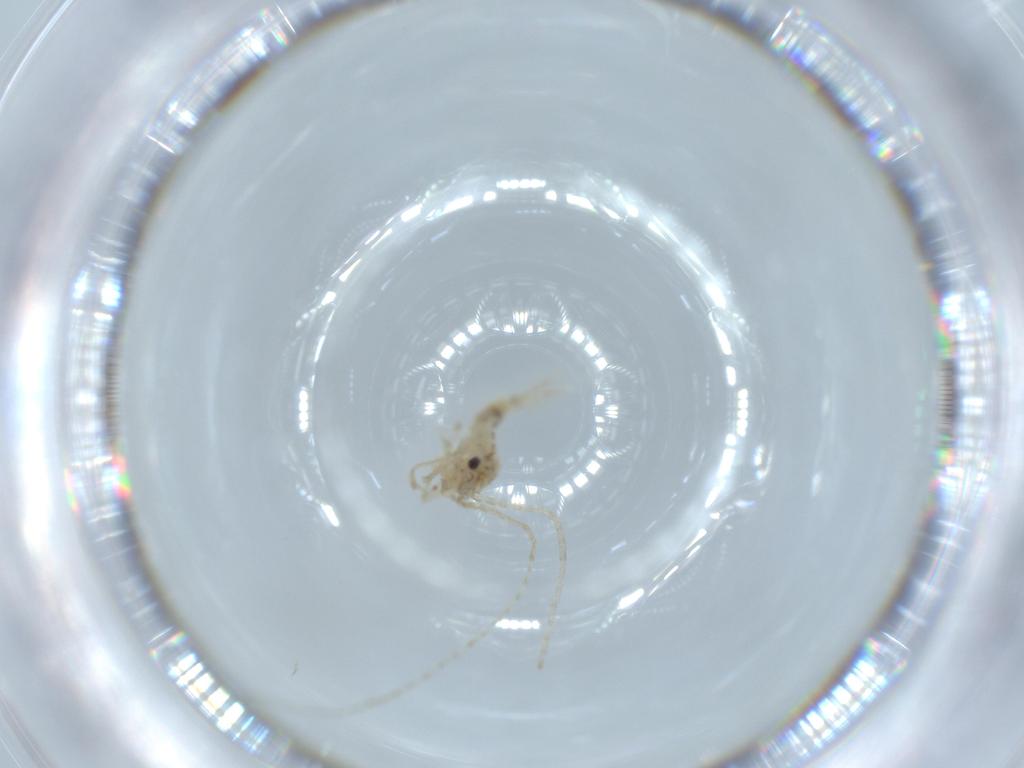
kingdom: Animalia
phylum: Arthropoda
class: Insecta
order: Orthoptera
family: Trigonidiidae
